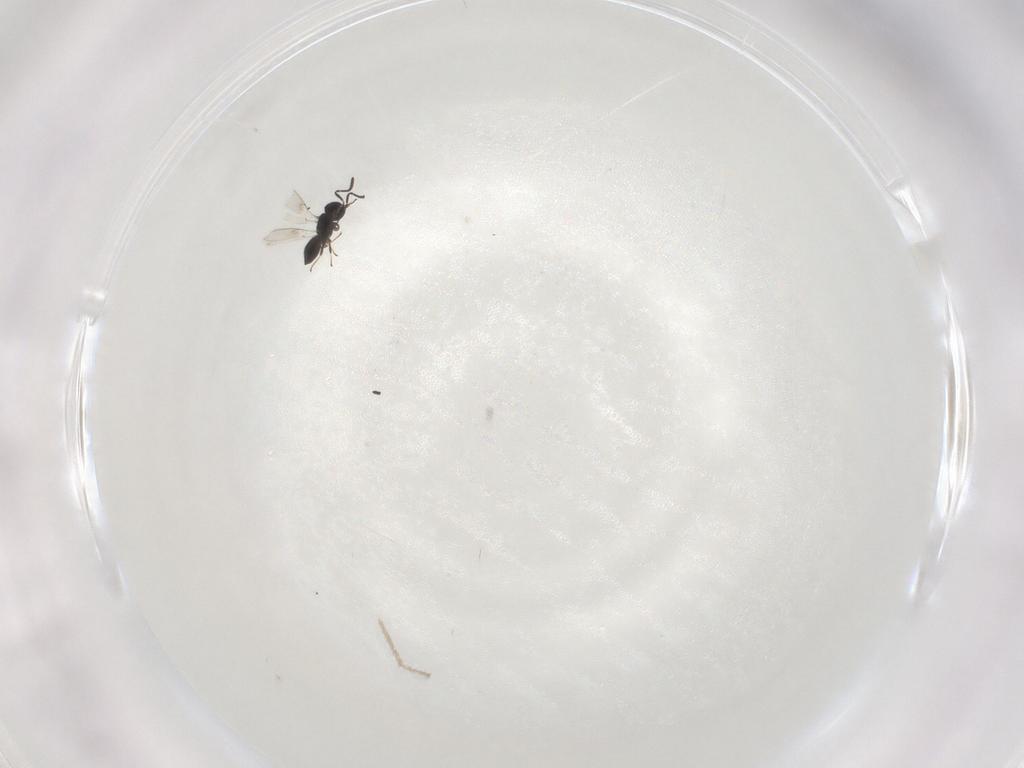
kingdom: Animalia
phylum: Arthropoda
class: Insecta
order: Hymenoptera
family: Scelionidae
